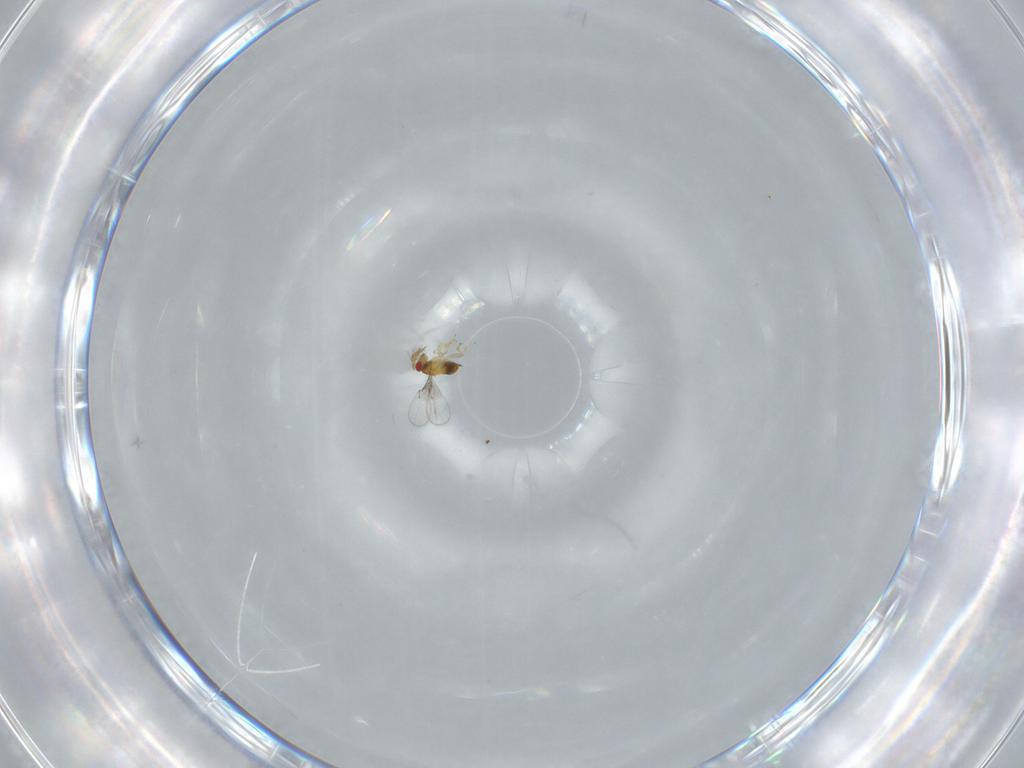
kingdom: Animalia
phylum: Arthropoda
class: Insecta
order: Hymenoptera
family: Trichogrammatidae
